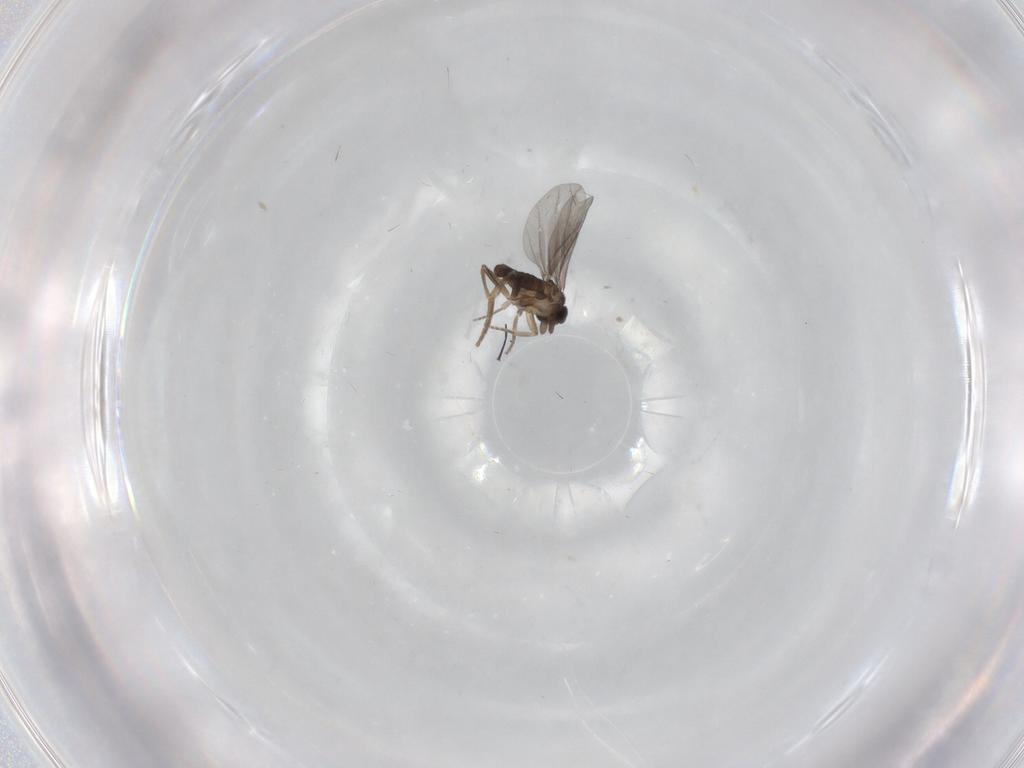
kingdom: Animalia
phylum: Arthropoda
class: Insecta
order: Diptera
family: Cecidomyiidae
